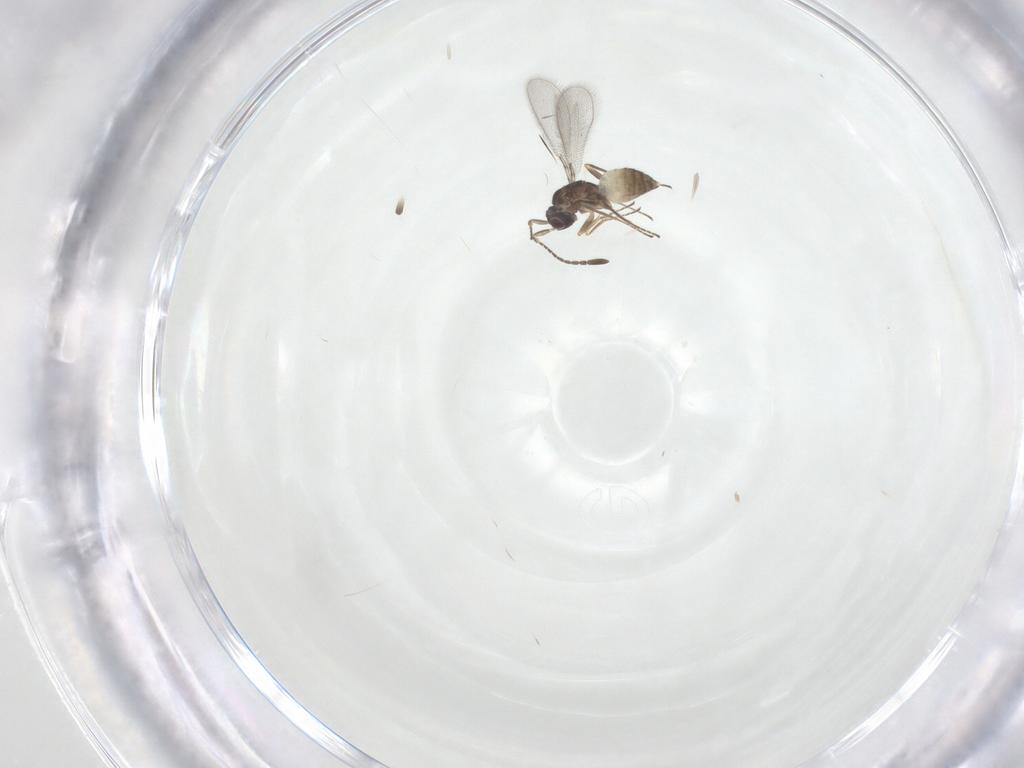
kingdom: Animalia
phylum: Arthropoda
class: Insecta
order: Hymenoptera
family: Mymaridae
